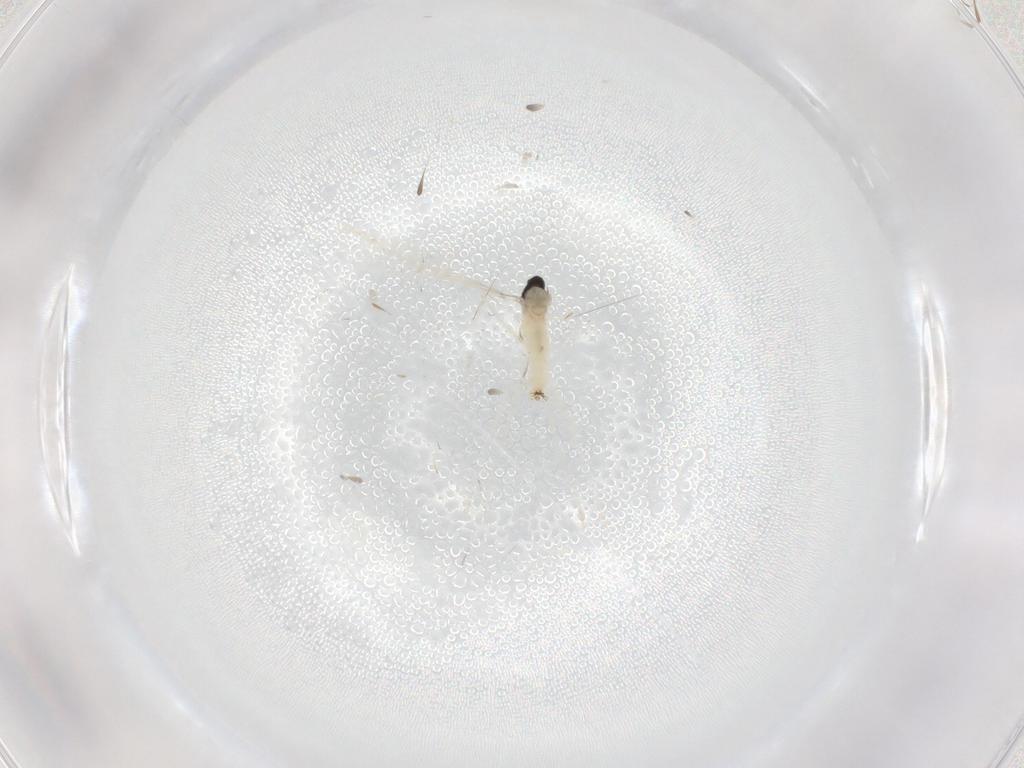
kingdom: Animalia
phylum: Arthropoda
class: Insecta
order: Diptera
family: Cecidomyiidae
